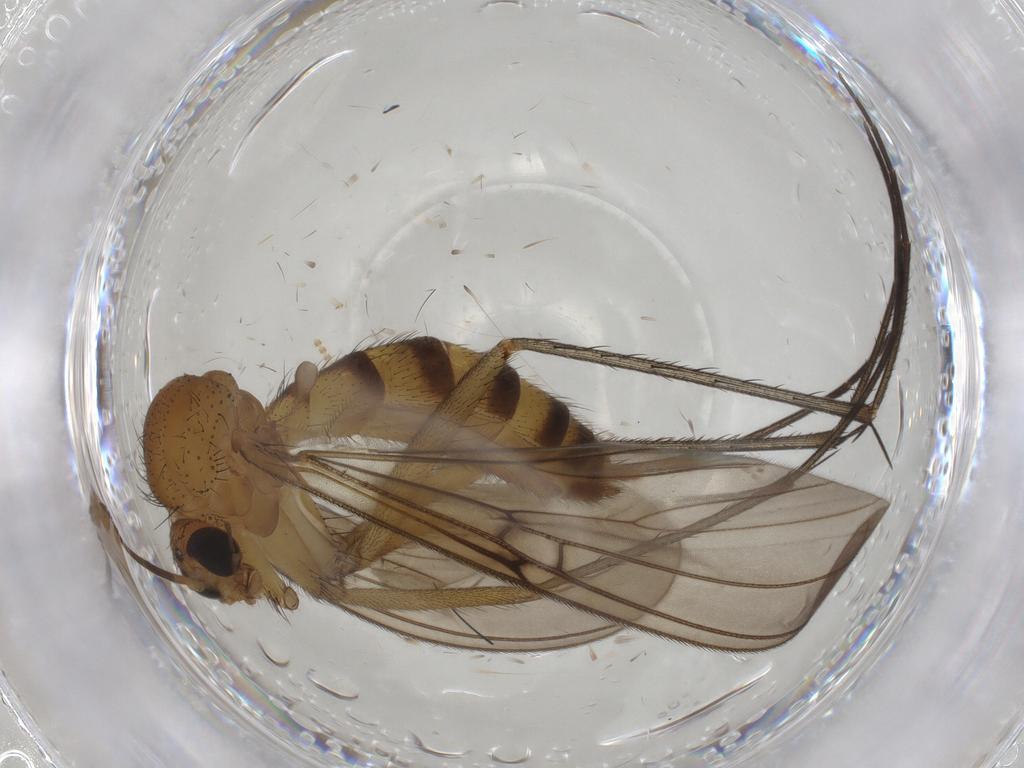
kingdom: Animalia
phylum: Arthropoda
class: Insecta
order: Diptera
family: Mycetophilidae
